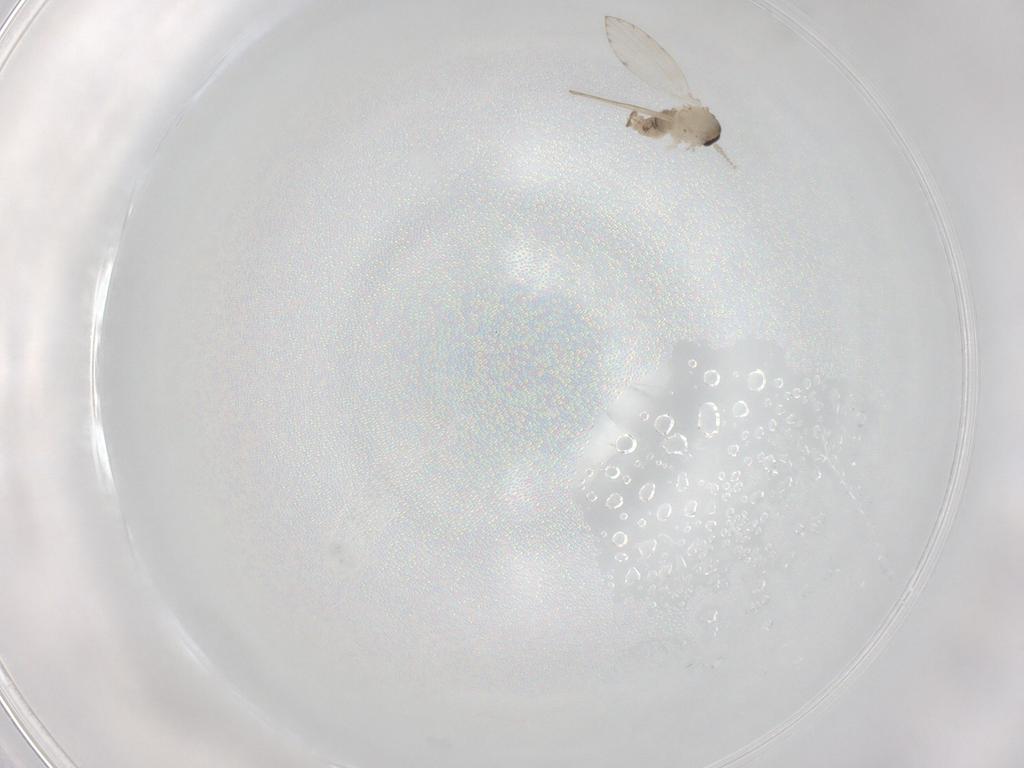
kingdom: Animalia
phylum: Arthropoda
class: Insecta
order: Diptera
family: Psychodidae
